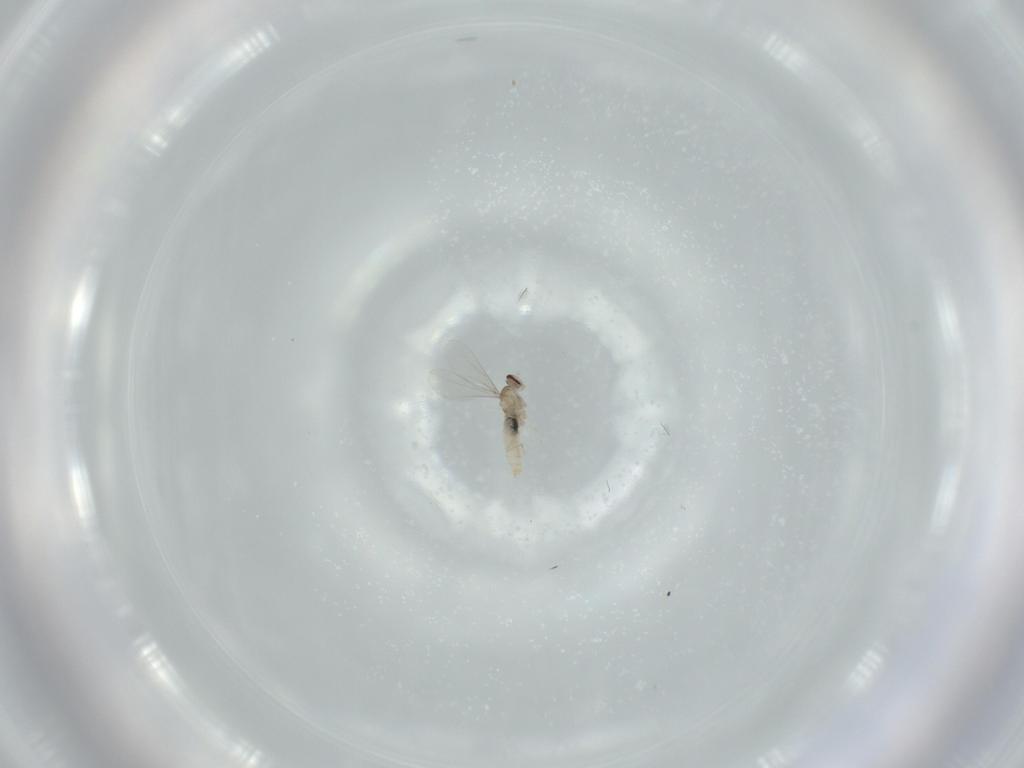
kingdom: Animalia
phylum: Arthropoda
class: Insecta
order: Diptera
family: Cecidomyiidae
